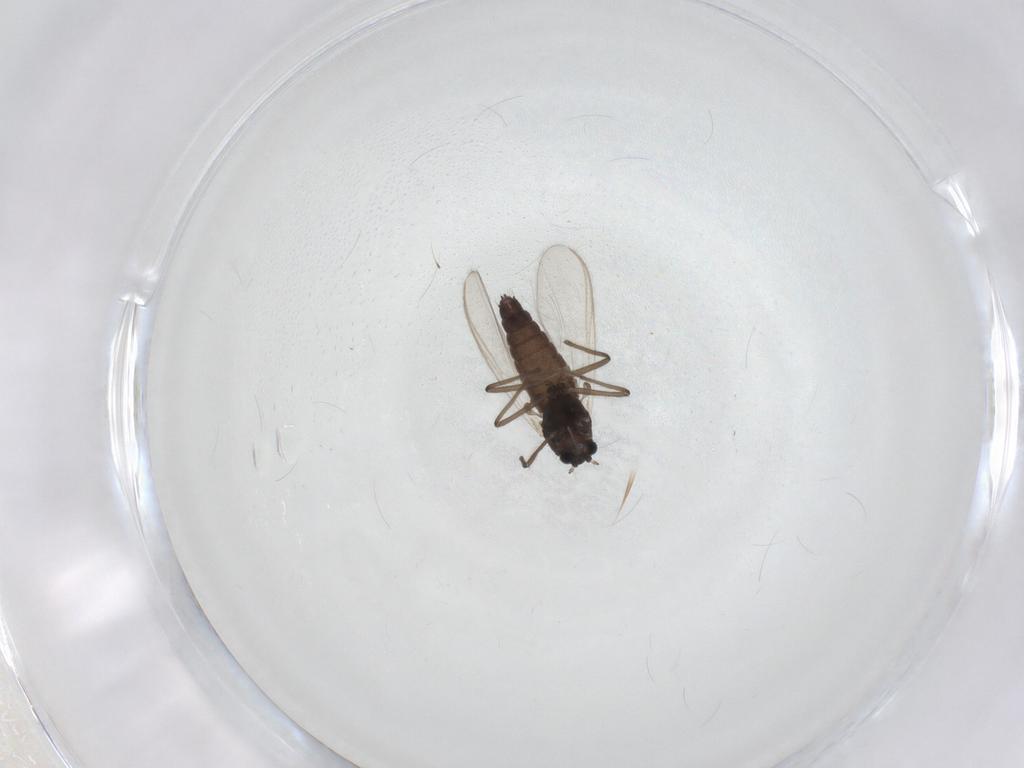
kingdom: Animalia
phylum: Arthropoda
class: Insecta
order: Diptera
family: Chironomidae
